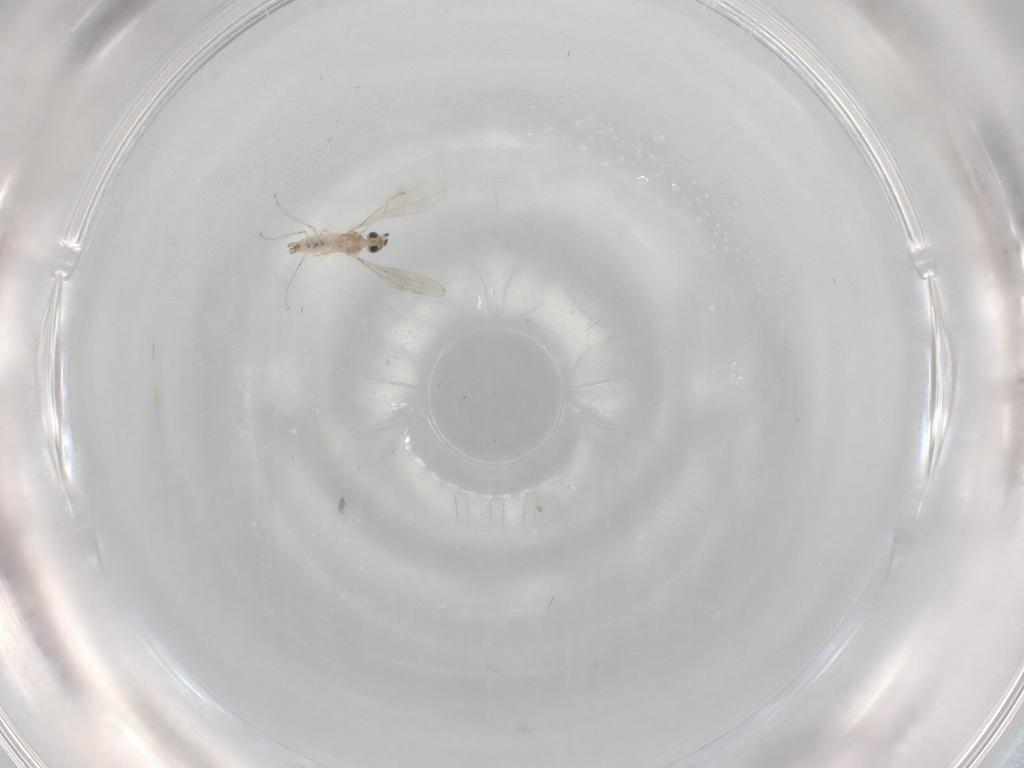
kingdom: Animalia
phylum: Arthropoda
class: Insecta
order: Diptera
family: Cecidomyiidae
